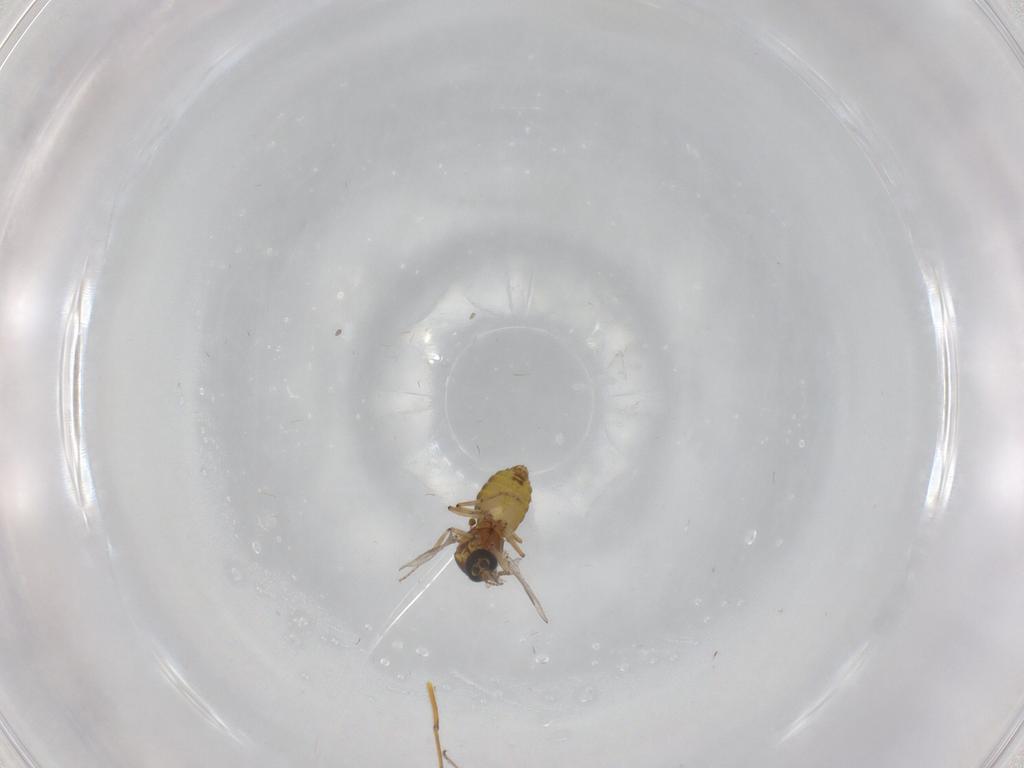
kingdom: Animalia
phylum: Arthropoda
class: Insecta
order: Diptera
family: Ceratopogonidae
